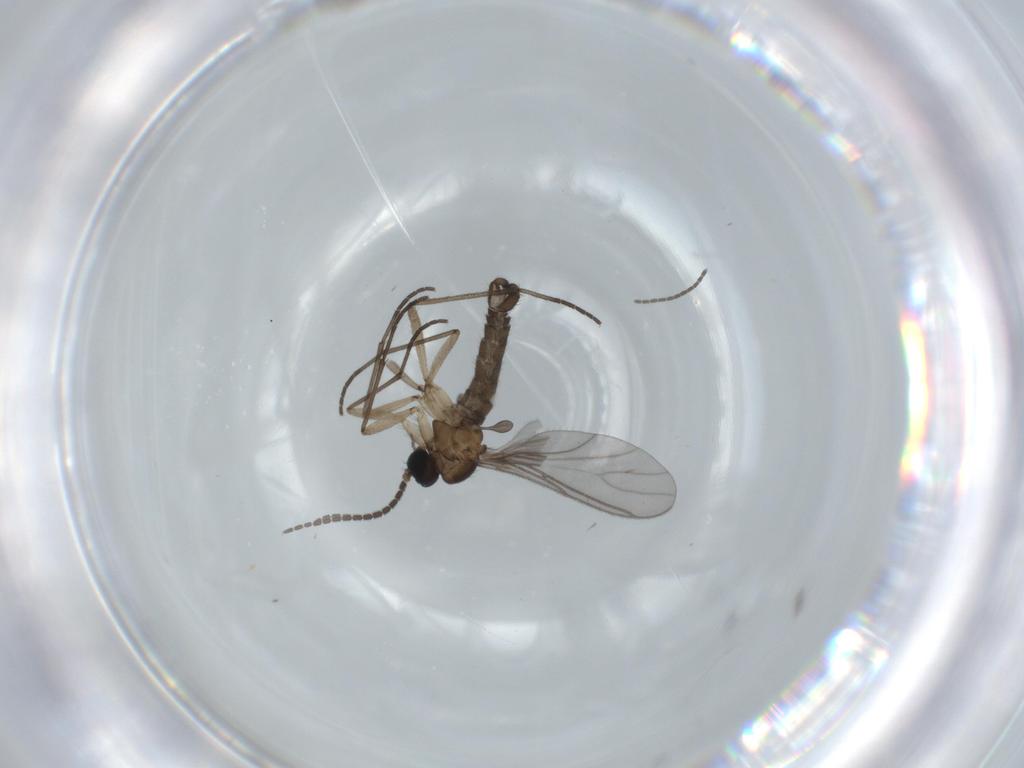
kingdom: Animalia
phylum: Arthropoda
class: Insecta
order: Diptera
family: Sciaridae
